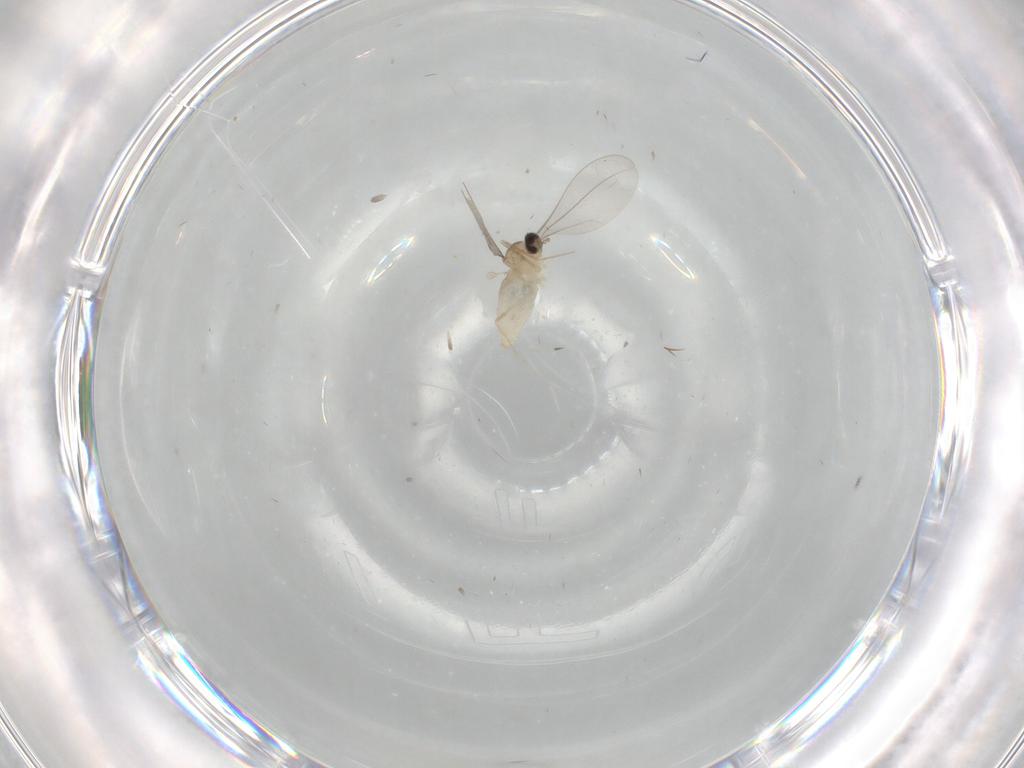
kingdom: Animalia
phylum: Arthropoda
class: Insecta
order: Diptera
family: Cecidomyiidae
